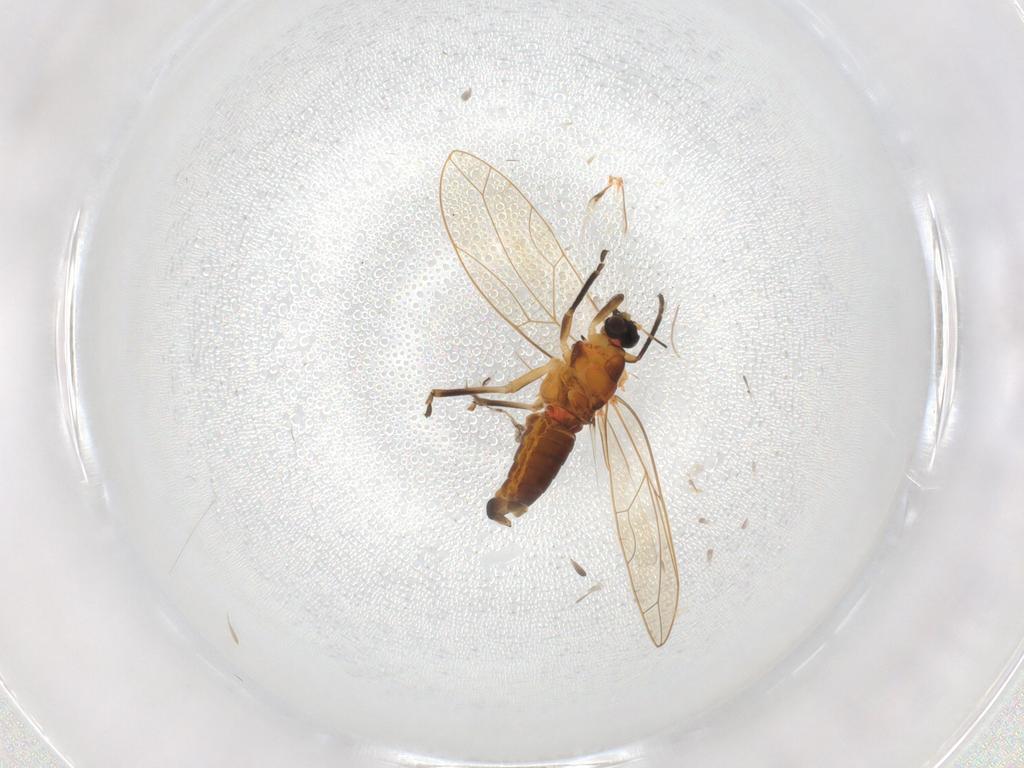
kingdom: Animalia
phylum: Arthropoda
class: Insecta
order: Hemiptera
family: Triozidae
